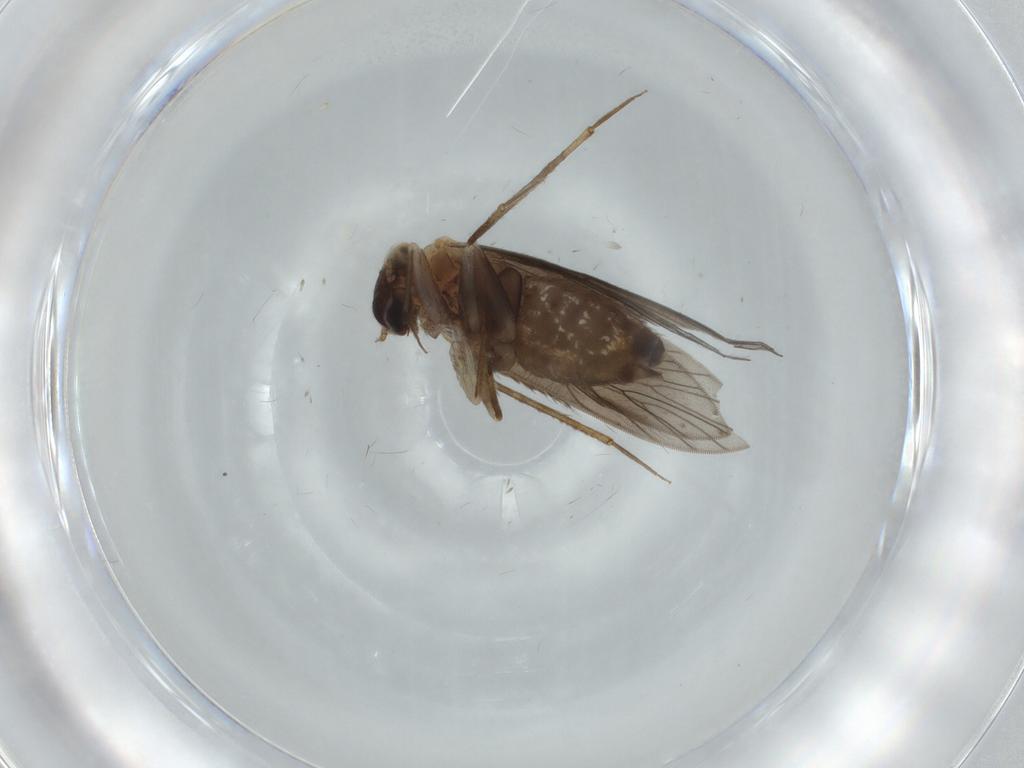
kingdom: Animalia
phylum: Arthropoda
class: Insecta
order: Psocodea
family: Lepidopsocidae
